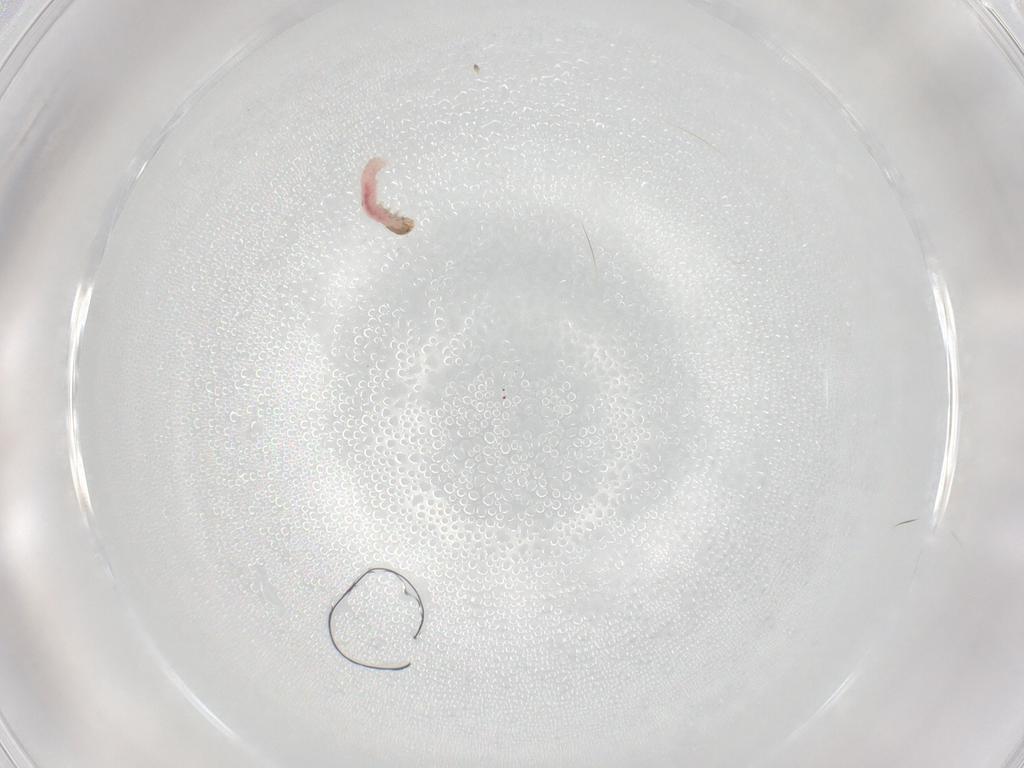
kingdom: Animalia
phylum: Arthropoda
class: Insecta
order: Lepidoptera
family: Lecithoceridae
